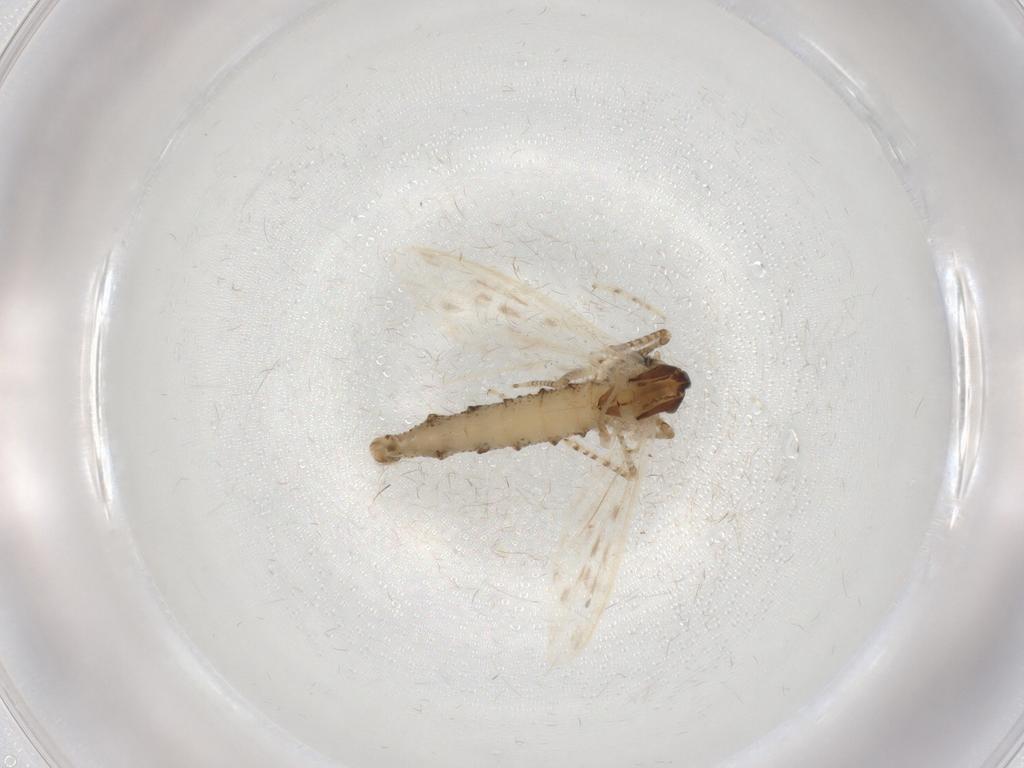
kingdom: Animalia
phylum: Arthropoda
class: Insecta
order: Diptera
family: Chaoboridae
